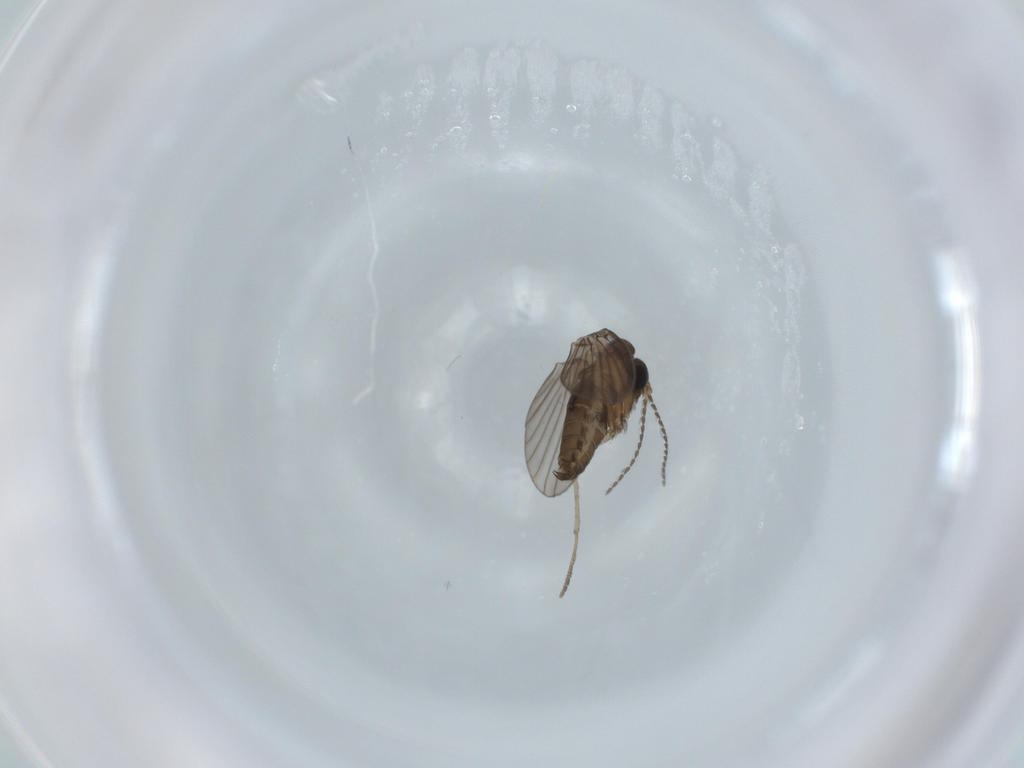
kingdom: Animalia
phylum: Arthropoda
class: Insecta
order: Diptera
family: Psychodidae
